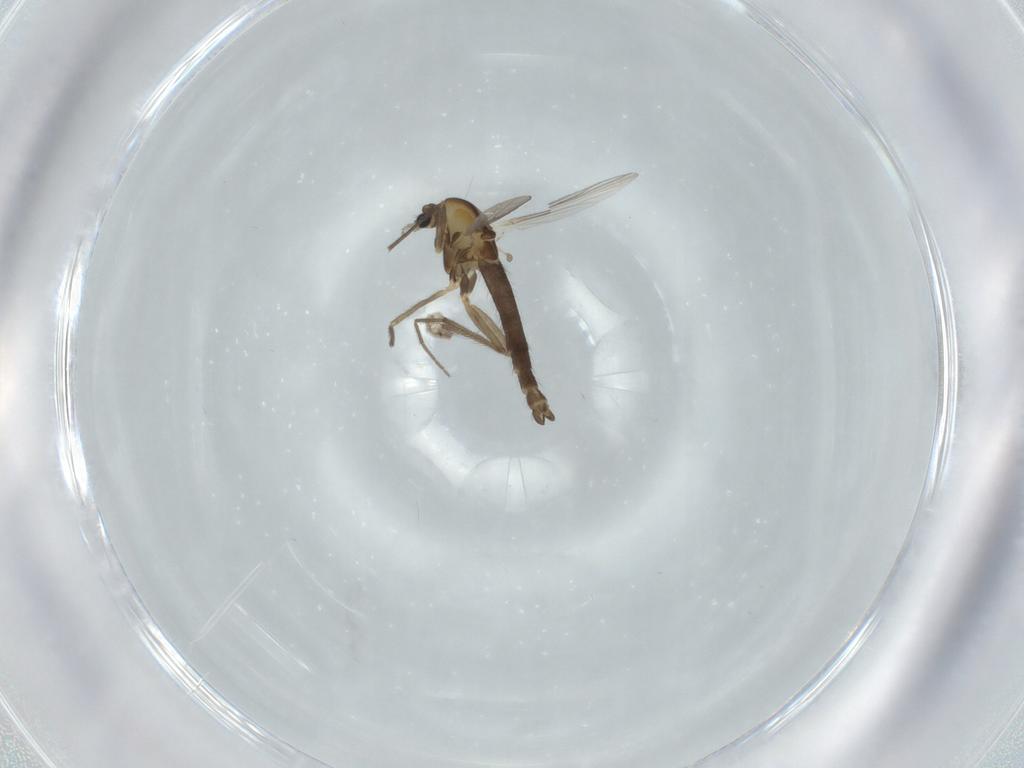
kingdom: Animalia
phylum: Arthropoda
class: Insecta
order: Diptera
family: Chironomidae
